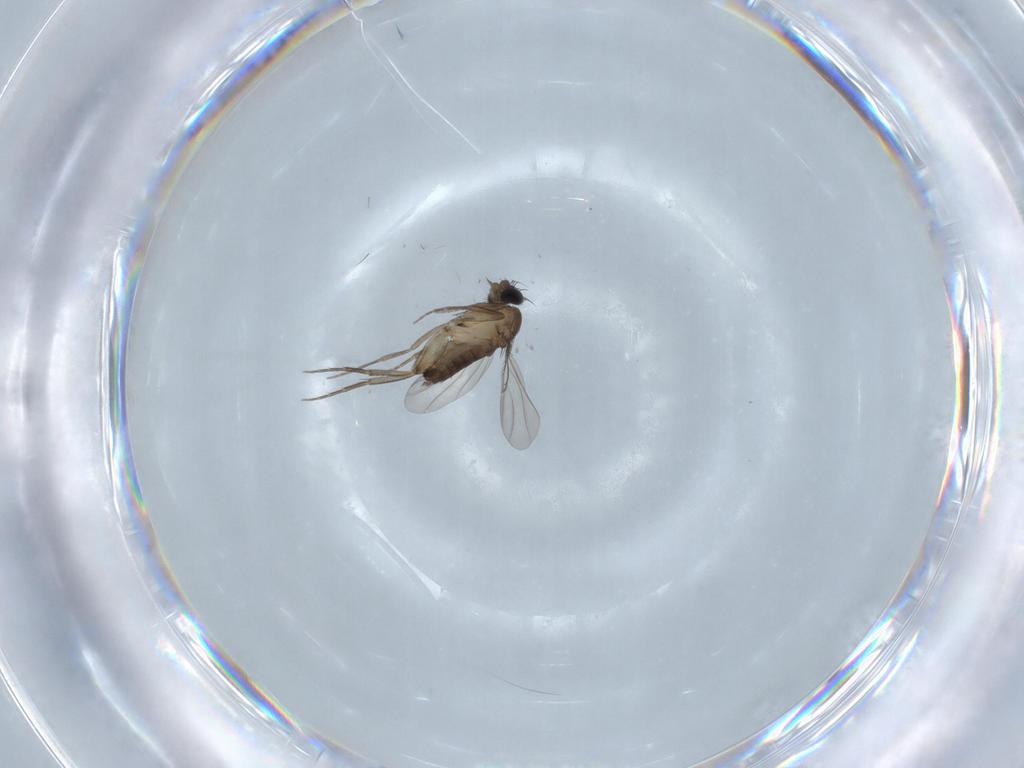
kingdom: Animalia
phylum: Arthropoda
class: Insecta
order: Diptera
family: Phoridae
